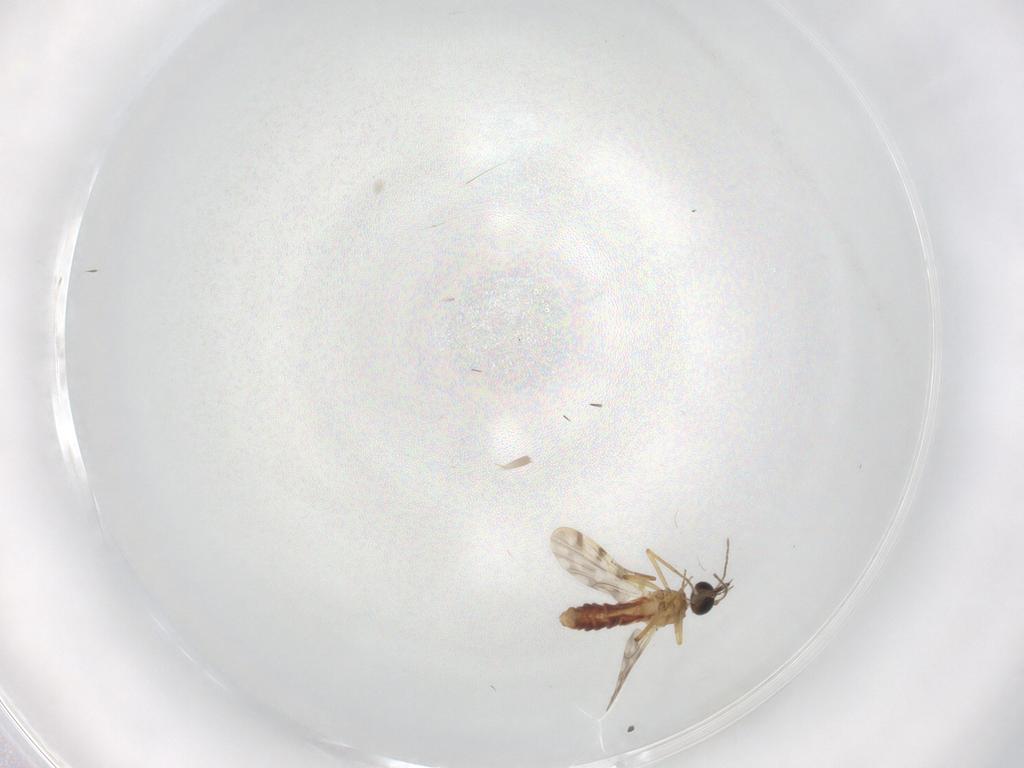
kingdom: Animalia
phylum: Arthropoda
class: Insecta
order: Diptera
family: Ceratopogonidae
